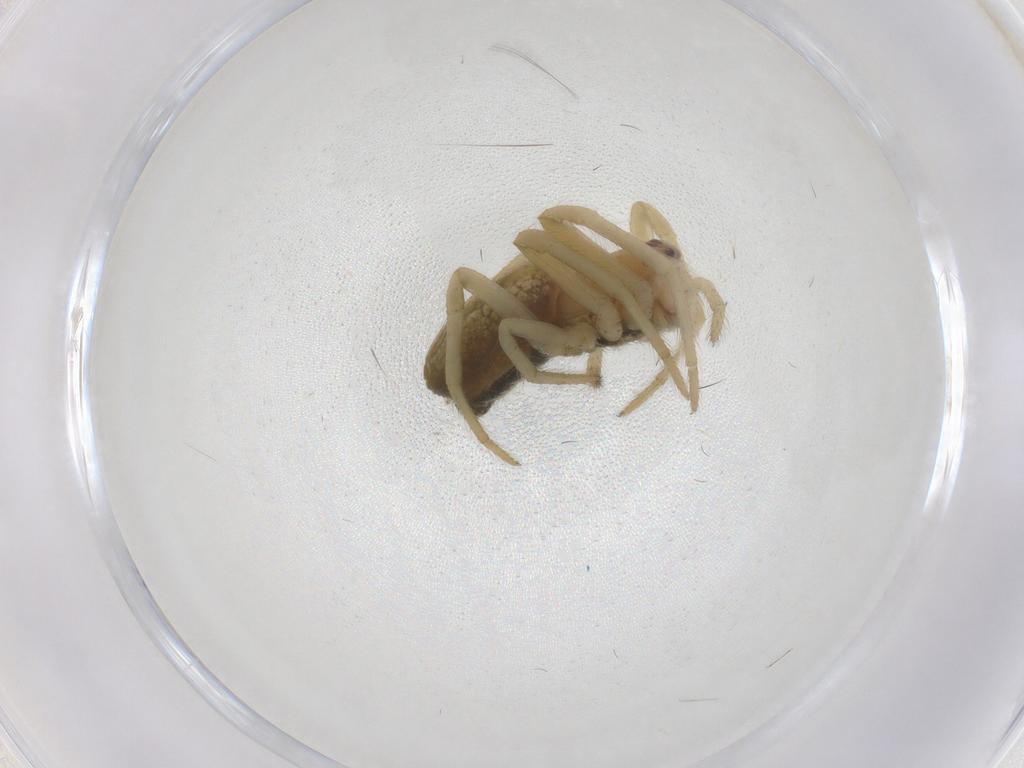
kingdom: Animalia
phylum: Arthropoda
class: Arachnida
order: Araneae
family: Araneidae
